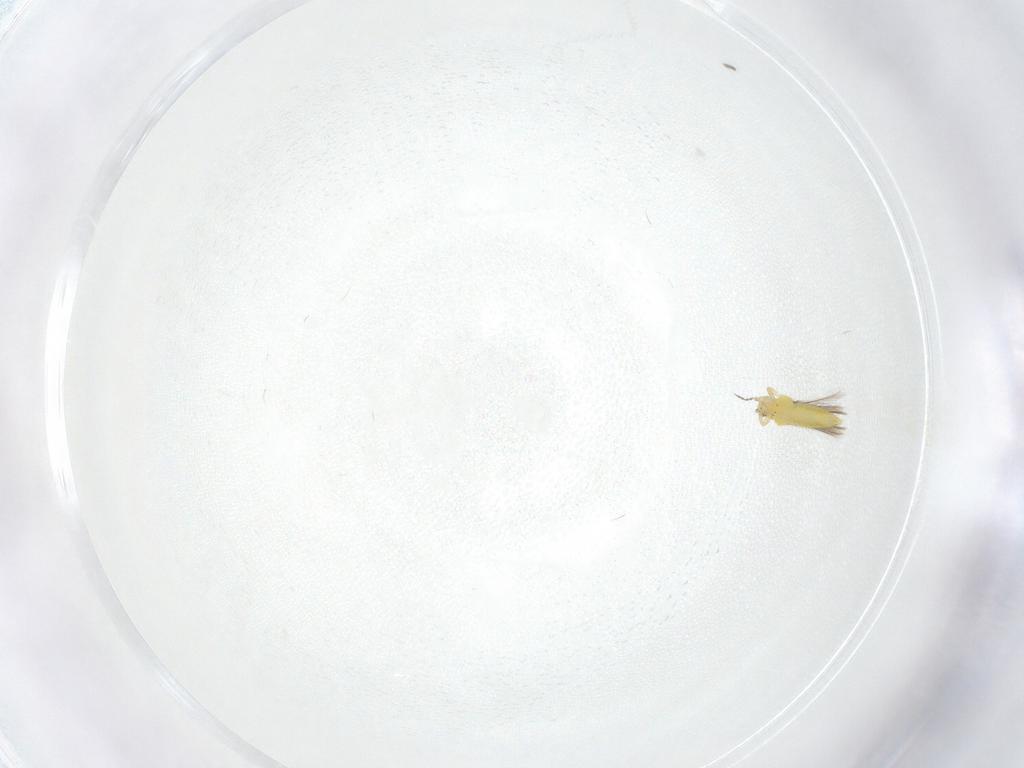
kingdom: Animalia
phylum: Arthropoda
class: Insecta
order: Thysanoptera
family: Thripidae
